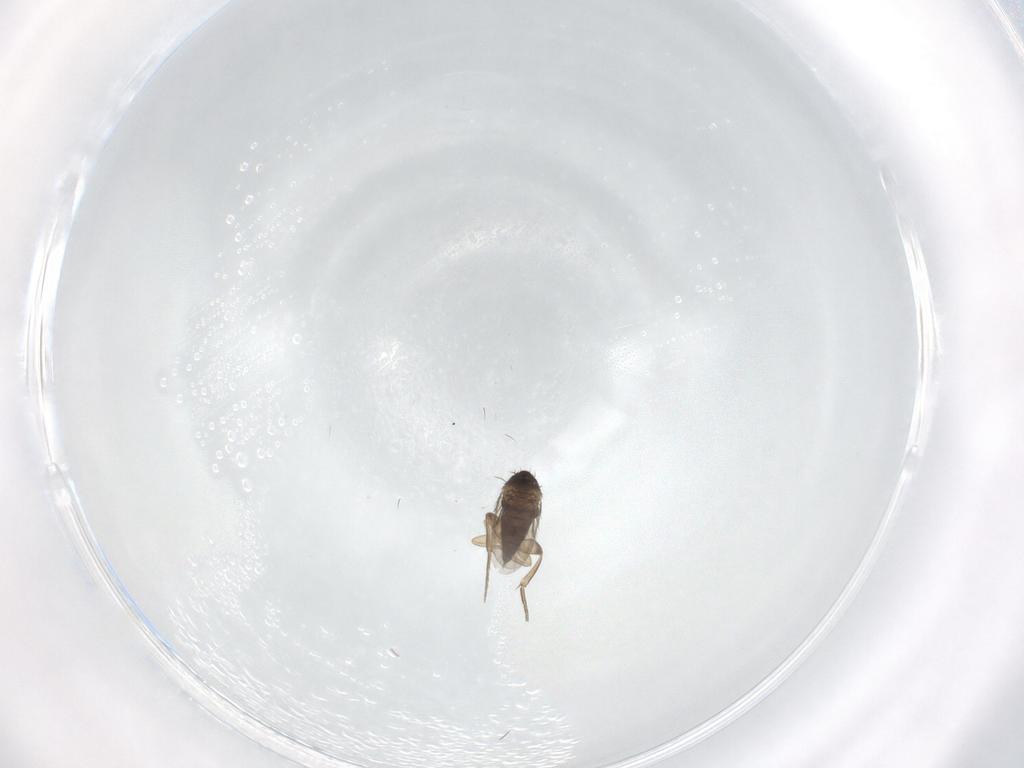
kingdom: Animalia
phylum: Arthropoda
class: Insecta
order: Diptera
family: Phoridae
